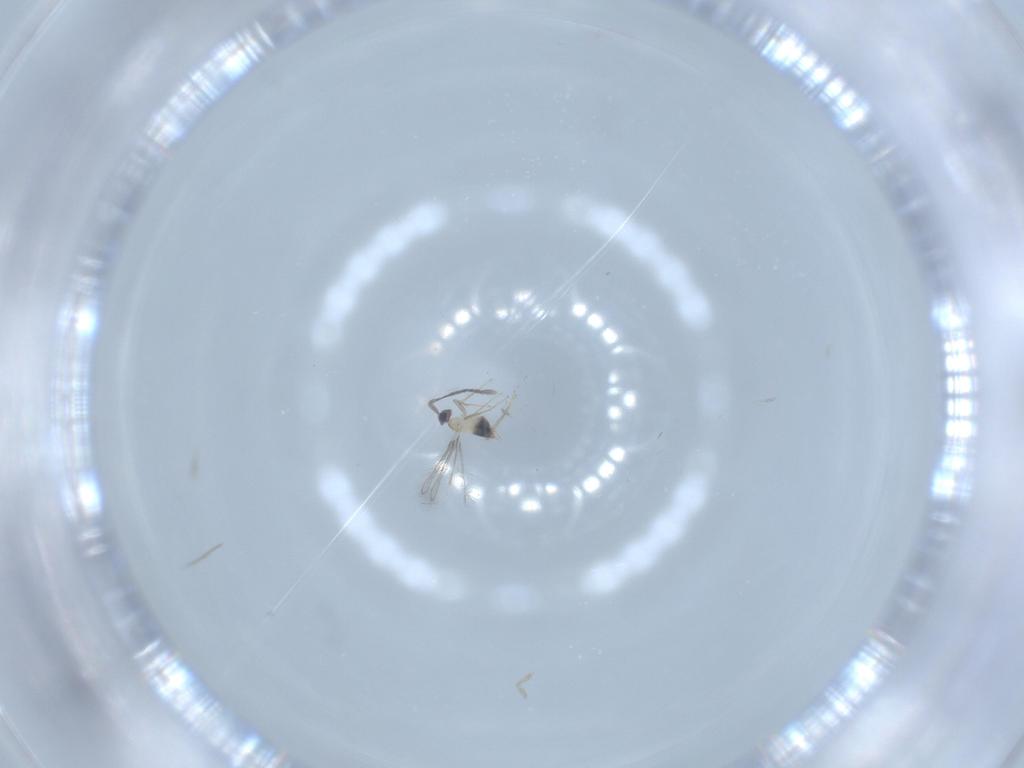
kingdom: Animalia
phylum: Arthropoda
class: Insecta
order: Hymenoptera
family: Mymaridae
